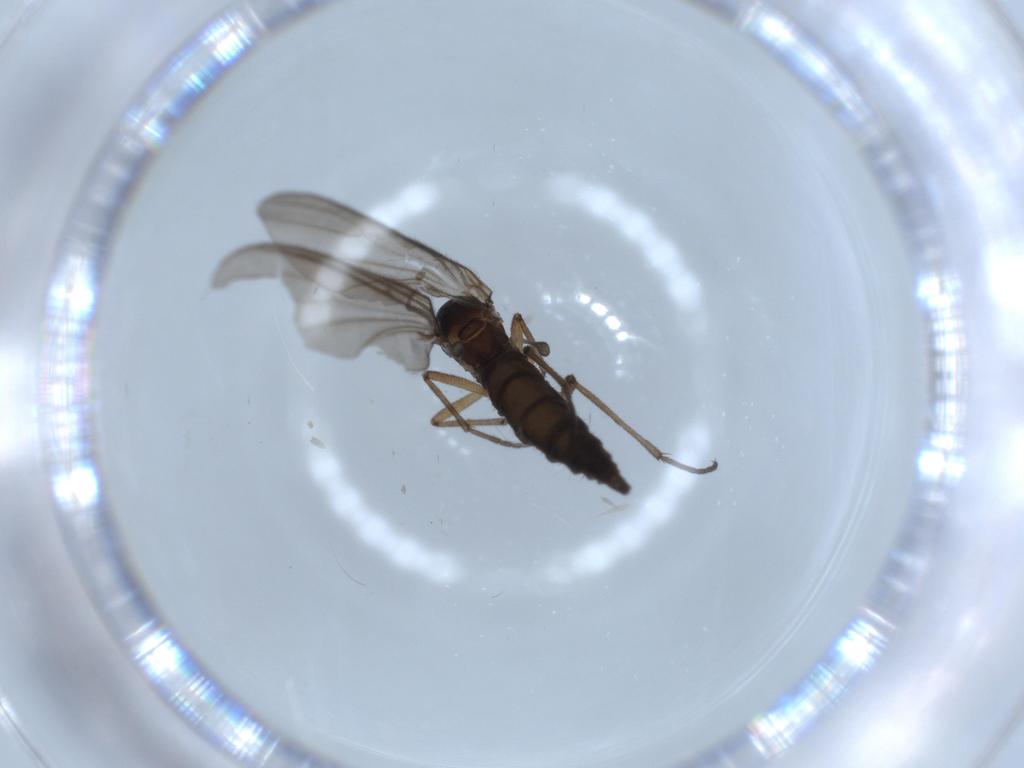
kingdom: Animalia
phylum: Arthropoda
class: Insecta
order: Diptera
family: Sciaridae
